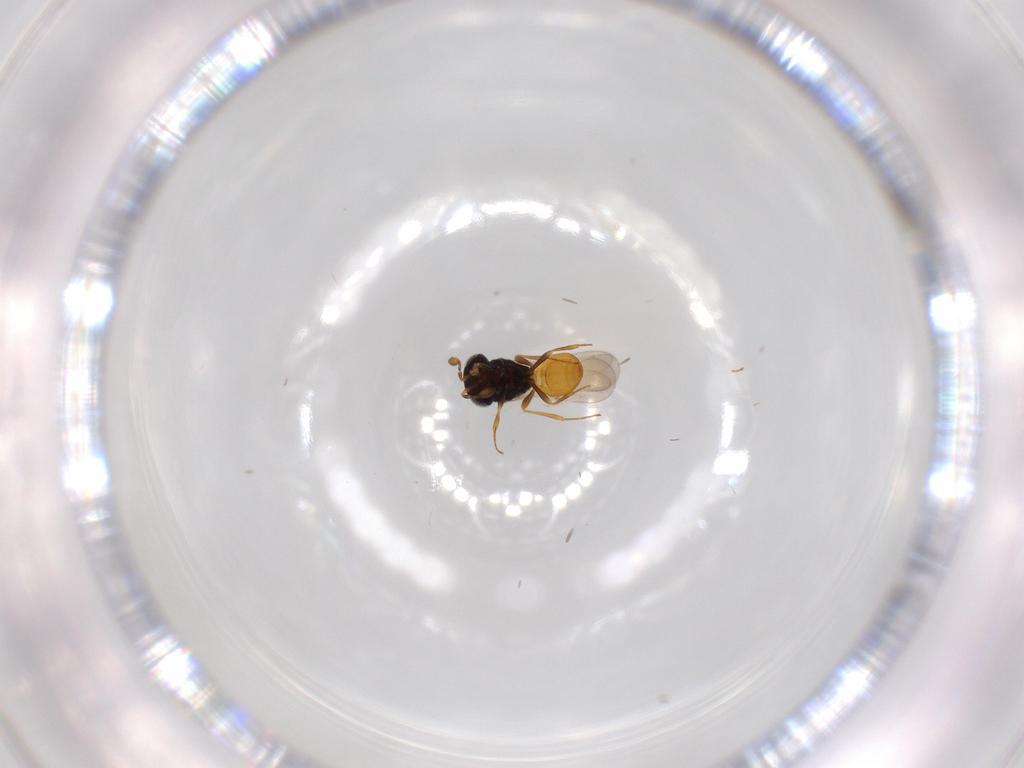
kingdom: Animalia
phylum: Arthropoda
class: Insecta
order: Hymenoptera
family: Scelionidae
